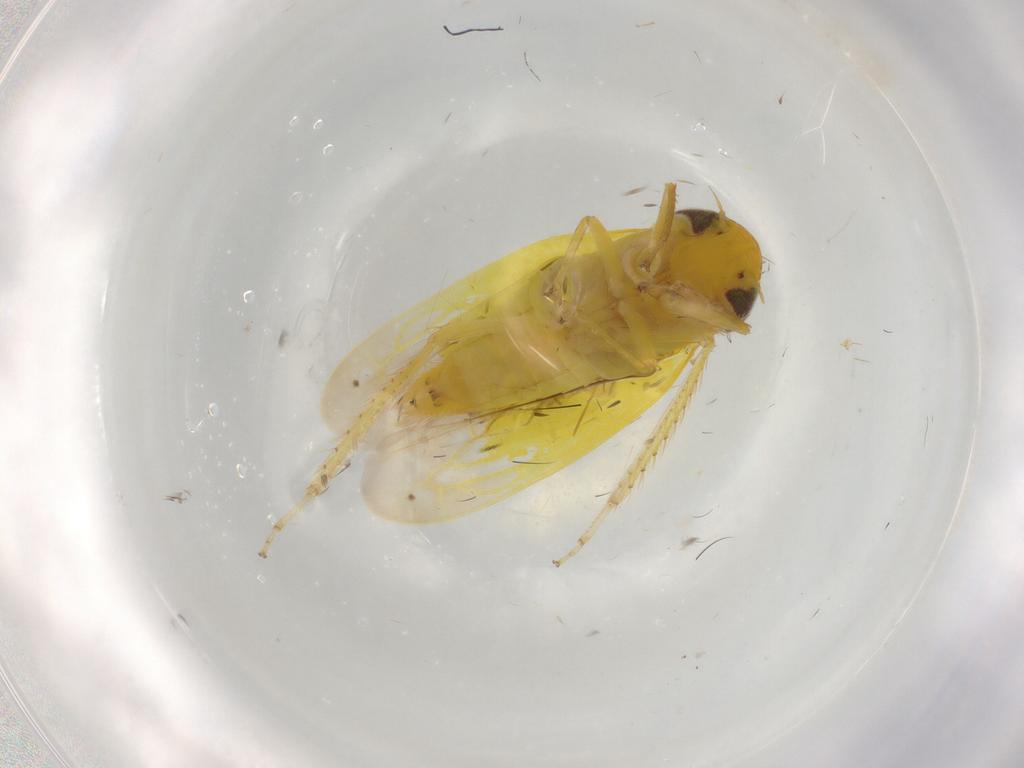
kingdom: Animalia
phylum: Arthropoda
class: Insecta
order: Hemiptera
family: Cicadellidae
